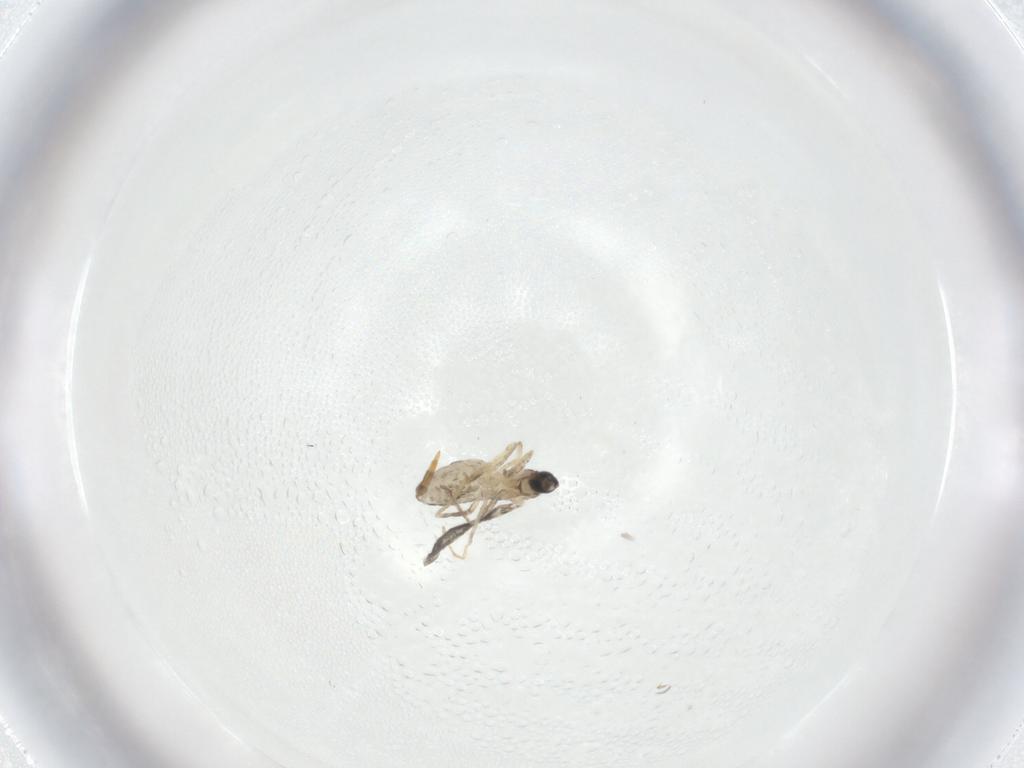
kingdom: Animalia
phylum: Arthropoda
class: Insecta
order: Diptera
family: Cecidomyiidae
